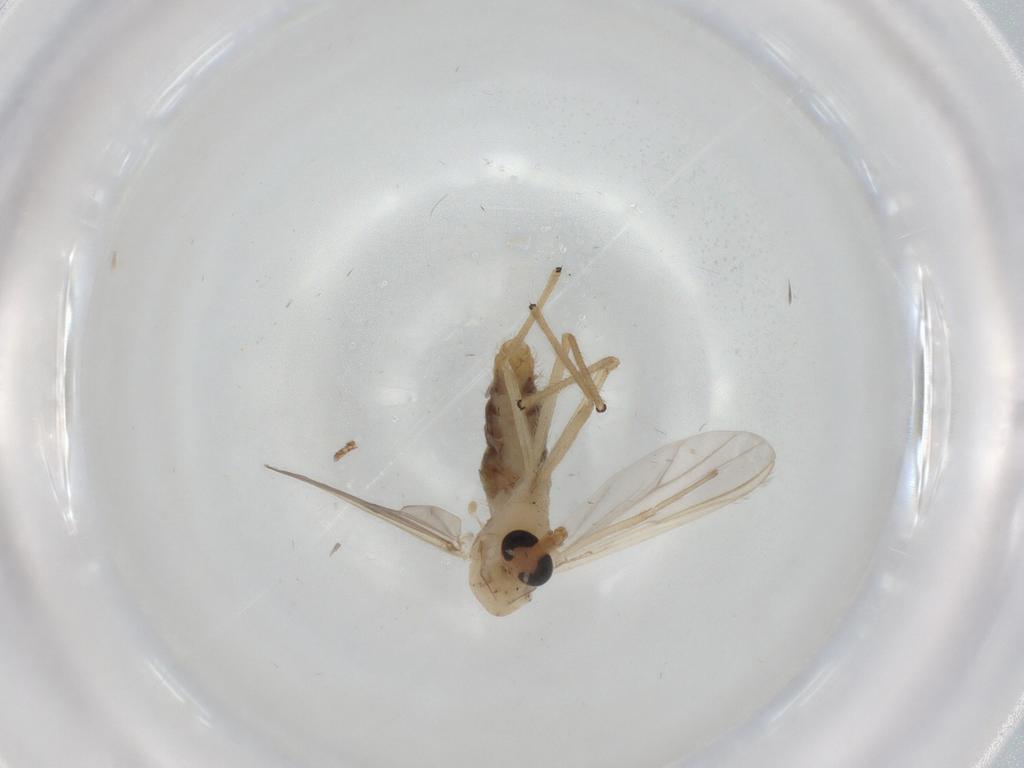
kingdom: Animalia
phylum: Arthropoda
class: Insecta
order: Diptera
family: Chironomidae
